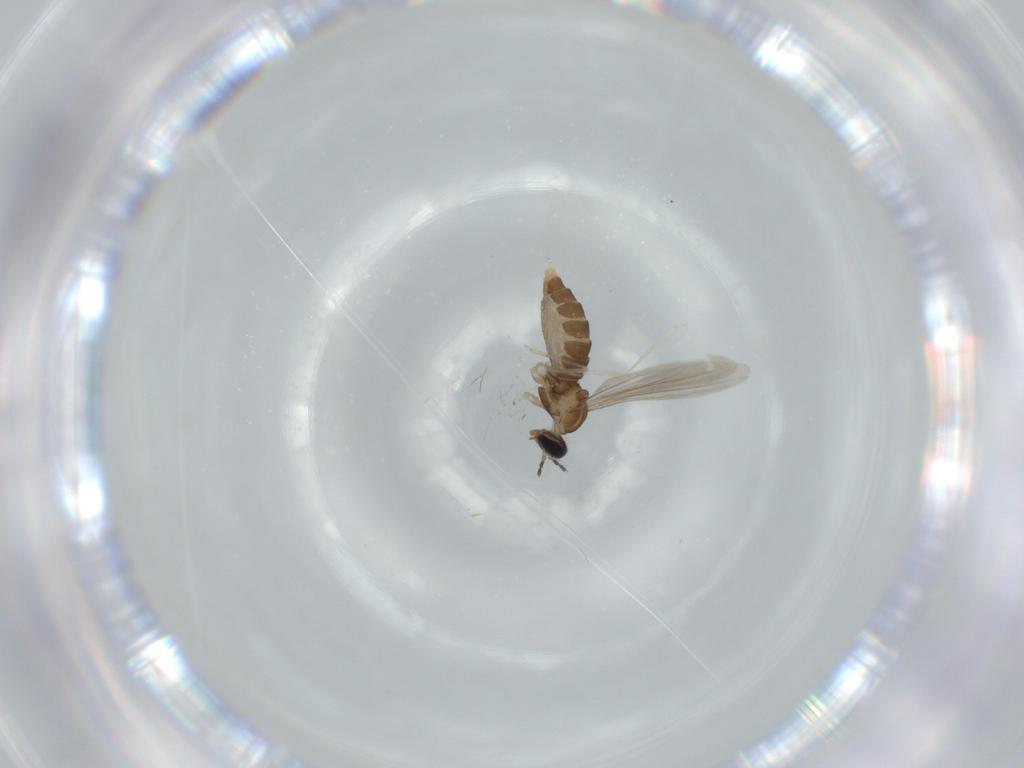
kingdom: Animalia
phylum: Arthropoda
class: Insecta
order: Diptera
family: Cecidomyiidae
